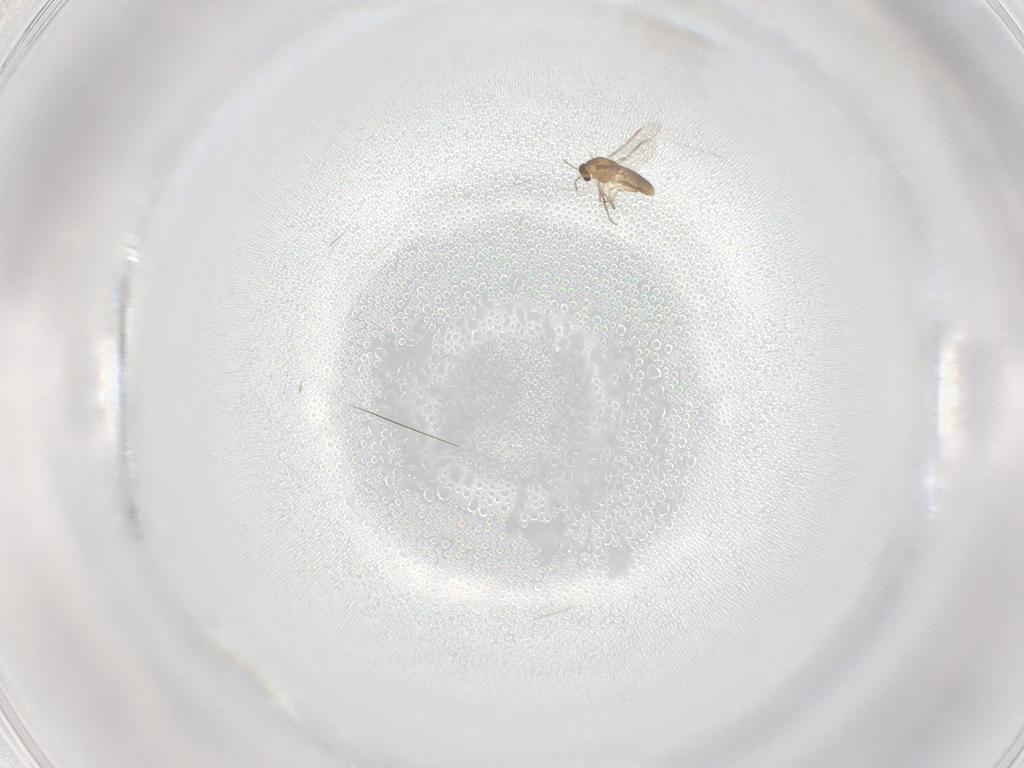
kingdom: Animalia
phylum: Arthropoda
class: Insecta
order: Diptera
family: Chironomidae
